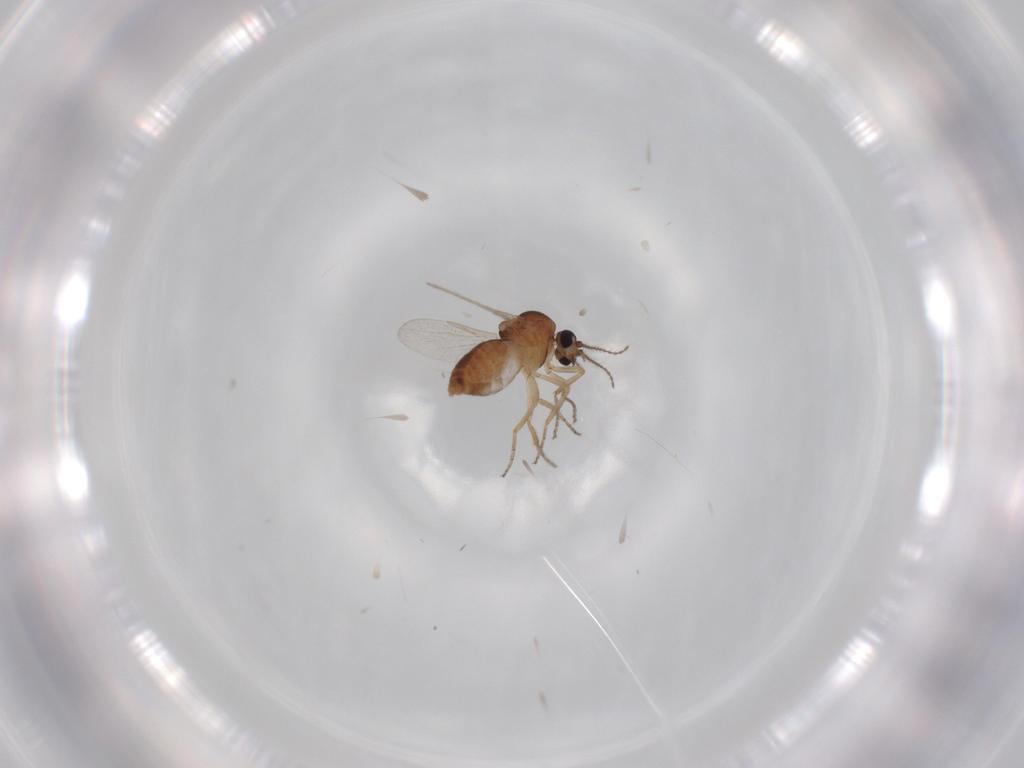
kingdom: Animalia
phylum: Arthropoda
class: Insecta
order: Diptera
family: Ceratopogonidae
